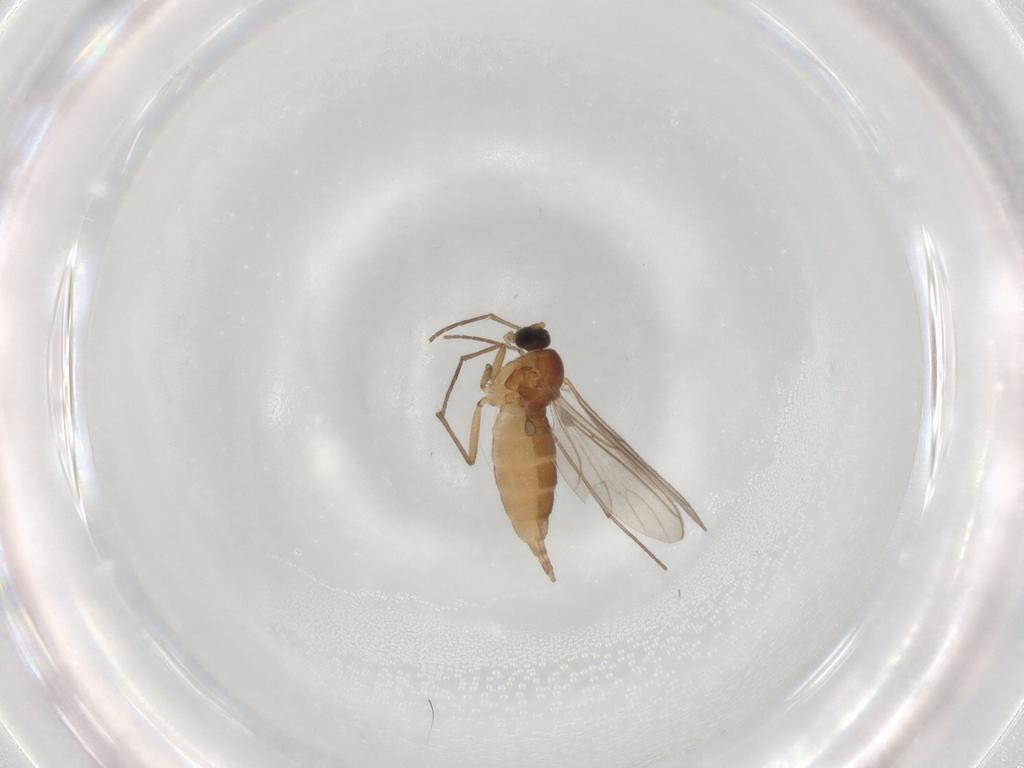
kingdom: Animalia
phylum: Arthropoda
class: Insecta
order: Diptera
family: Sciaridae
